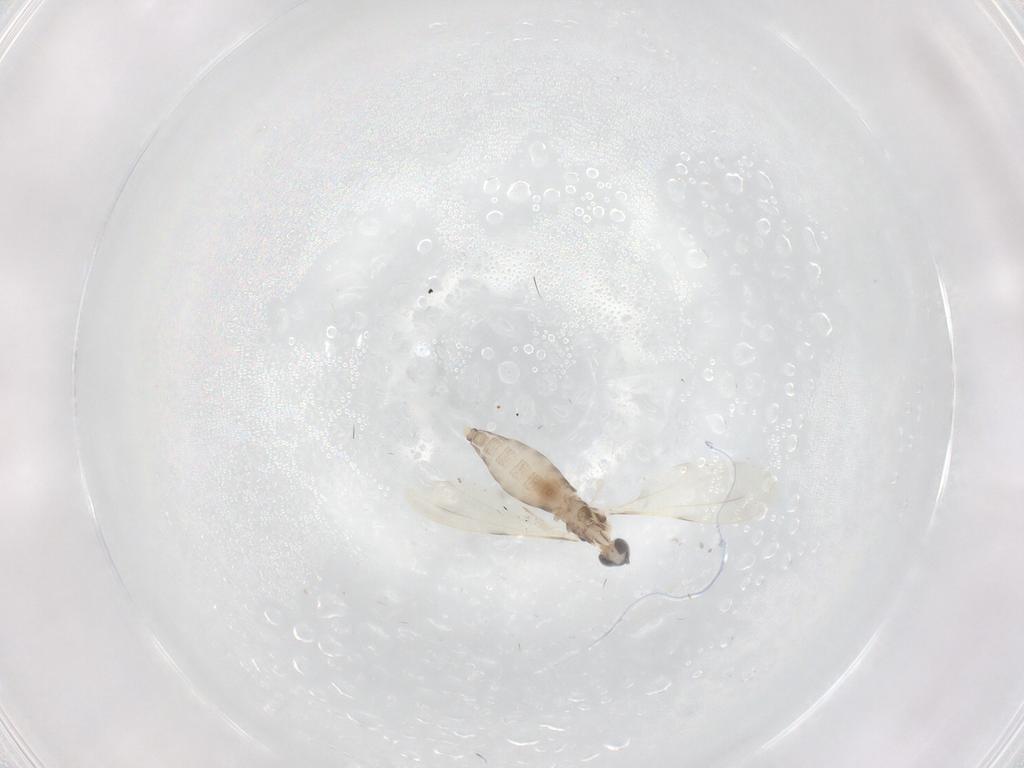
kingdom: Animalia
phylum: Arthropoda
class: Insecta
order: Diptera
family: Cecidomyiidae
